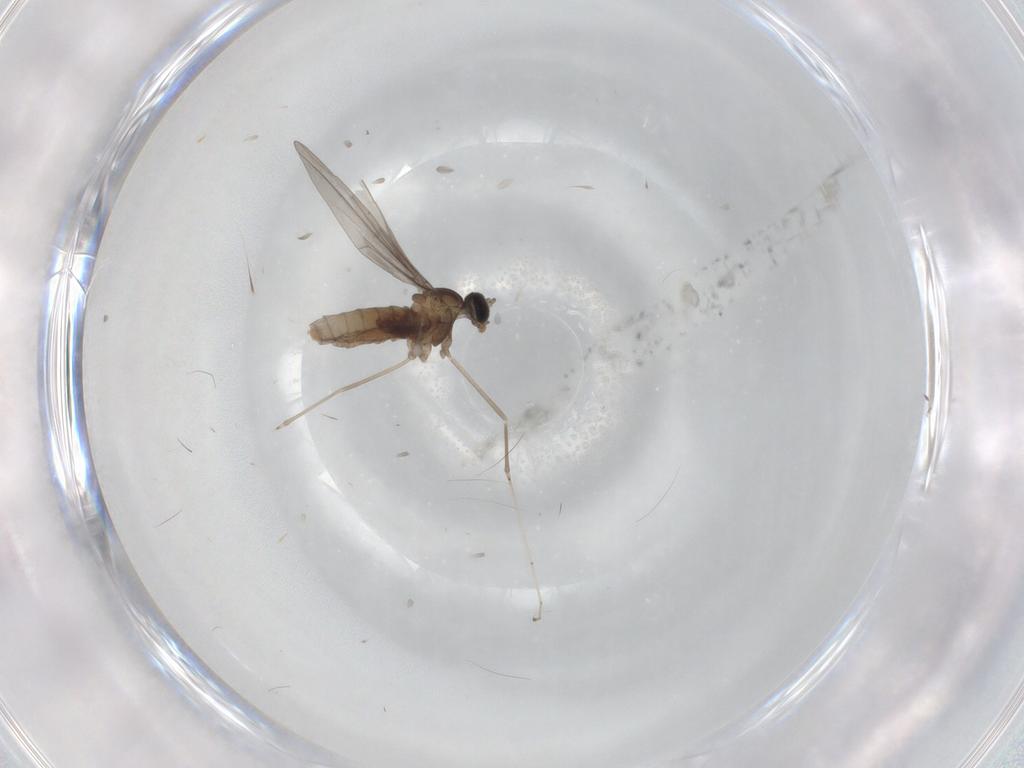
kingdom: Animalia
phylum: Arthropoda
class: Insecta
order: Diptera
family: Cecidomyiidae
